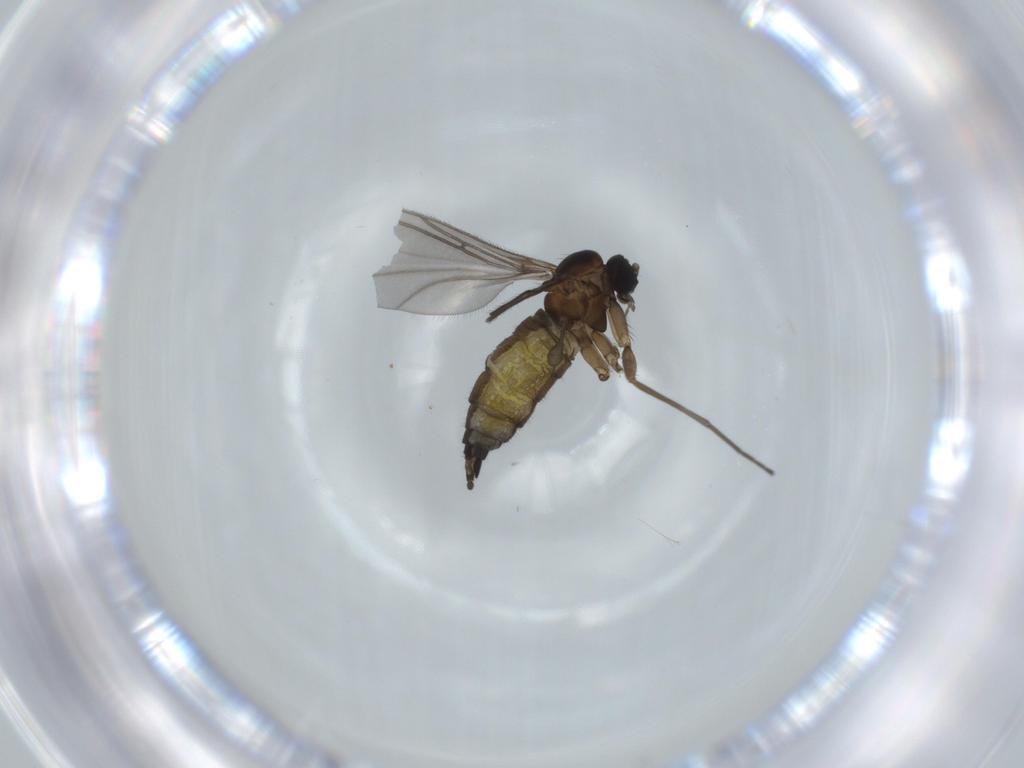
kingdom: Animalia
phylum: Arthropoda
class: Insecta
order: Diptera
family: Sciaridae
